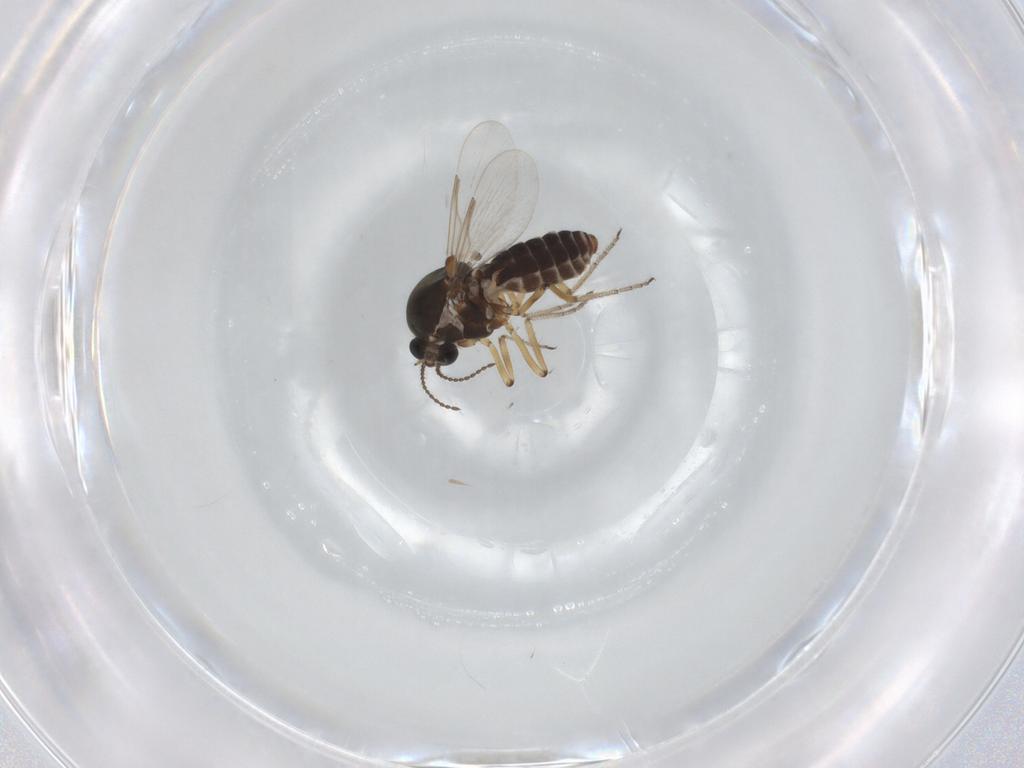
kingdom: Animalia
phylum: Arthropoda
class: Insecta
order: Diptera
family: Ceratopogonidae
